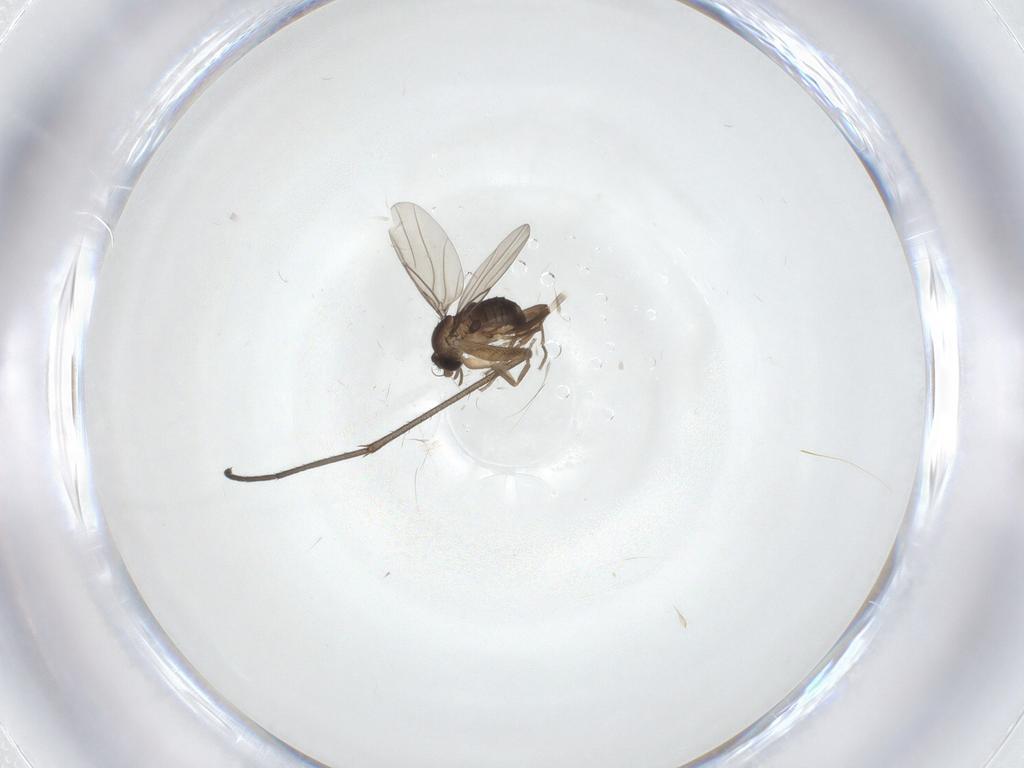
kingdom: Animalia
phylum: Arthropoda
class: Insecta
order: Diptera
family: Sciaridae
